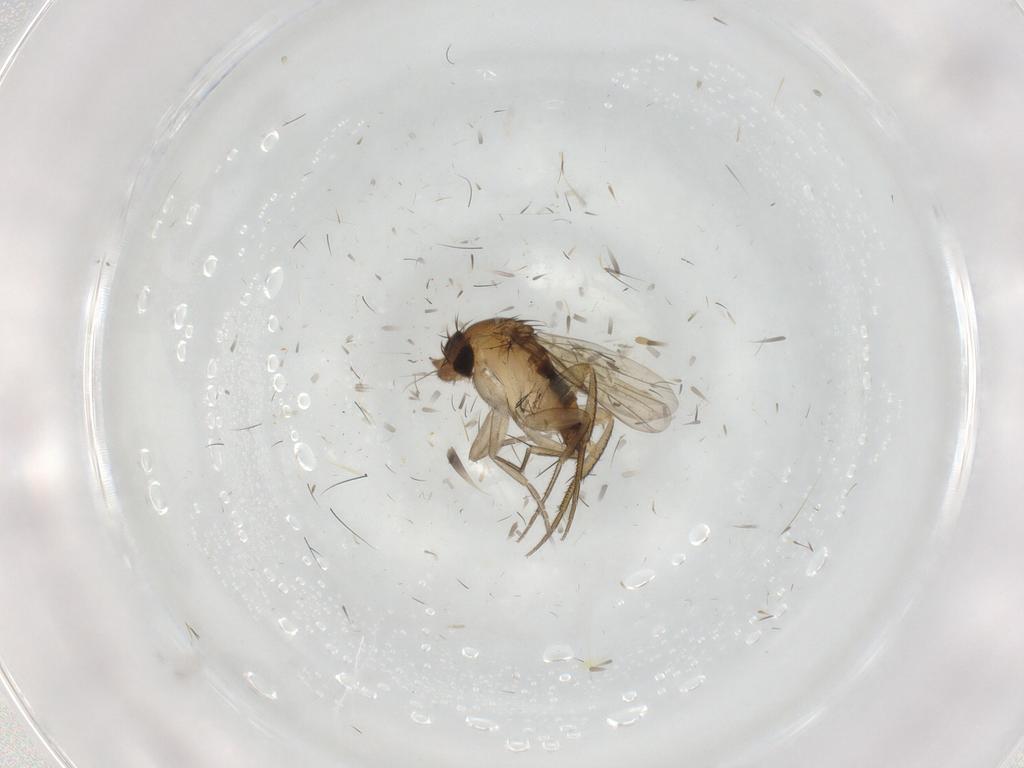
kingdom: Animalia
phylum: Arthropoda
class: Insecta
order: Diptera
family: Phoridae
